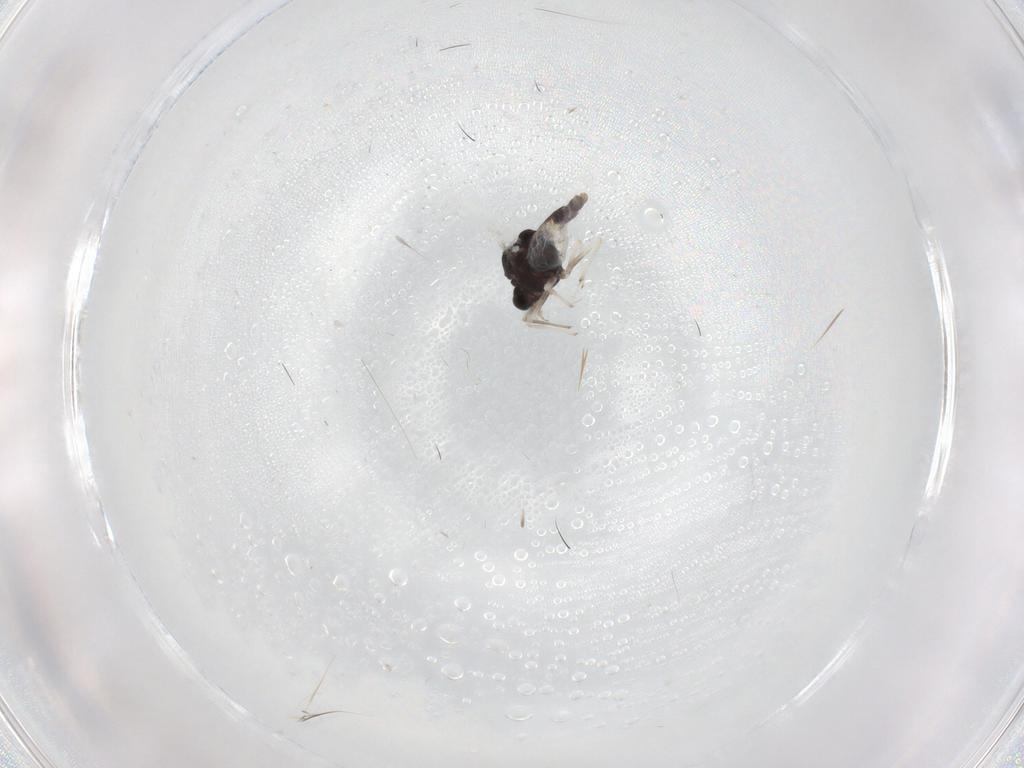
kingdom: Animalia
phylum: Arthropoda
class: Insecta
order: Diptera
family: Chironomidae
